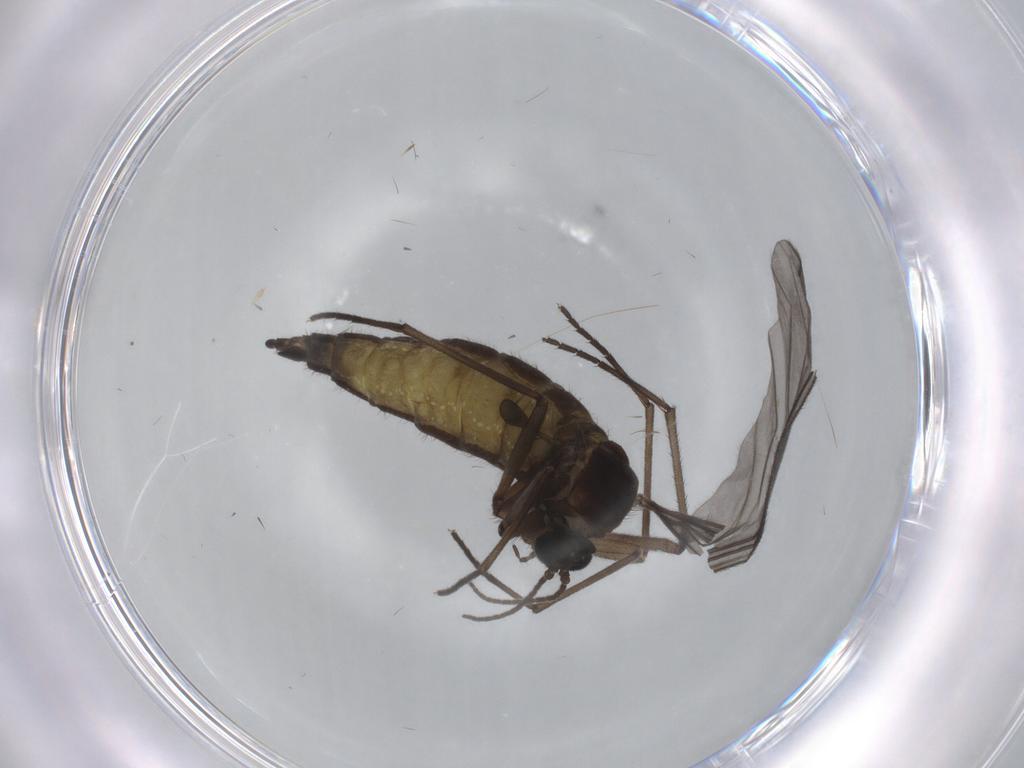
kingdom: Animalia
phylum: Arthropoda
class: Insecta
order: Diptera
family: Sciaridae
